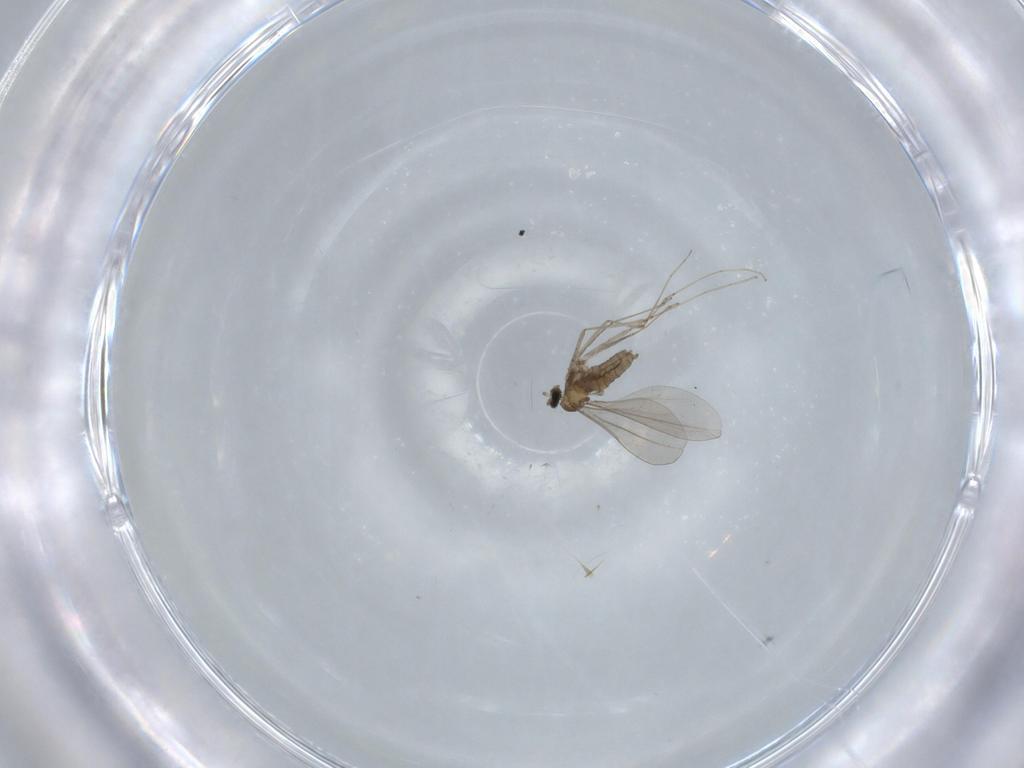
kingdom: Animalia
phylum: Arthropoda
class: Insecta
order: Diptera
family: Cecidomyiidae
